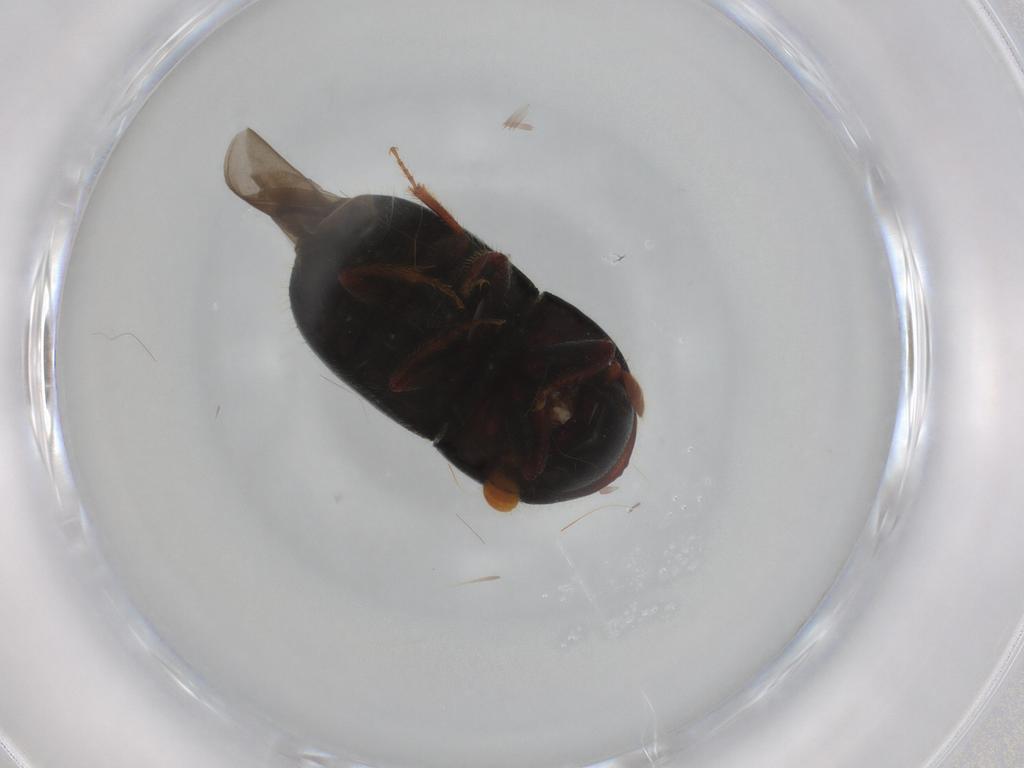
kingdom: Animalia
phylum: Arthropoda
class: Insecta
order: Coleoptera
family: Curculionidae
